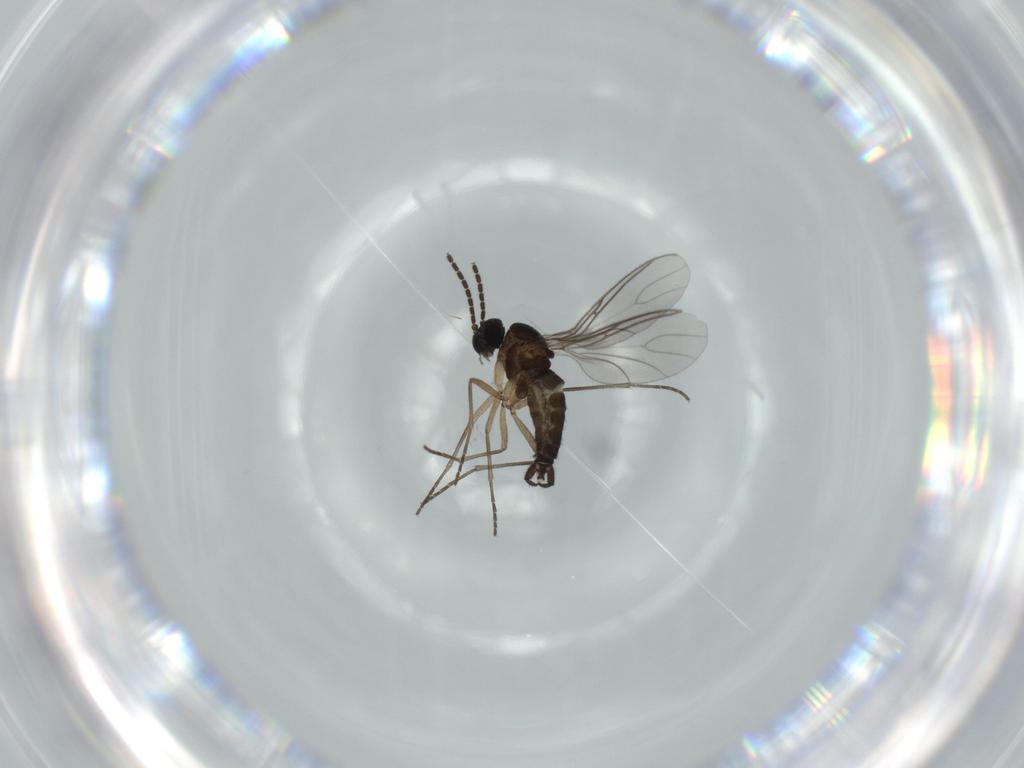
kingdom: Animalia
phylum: Arthropoda
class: Insecta
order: Diptera
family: Sciaridae
